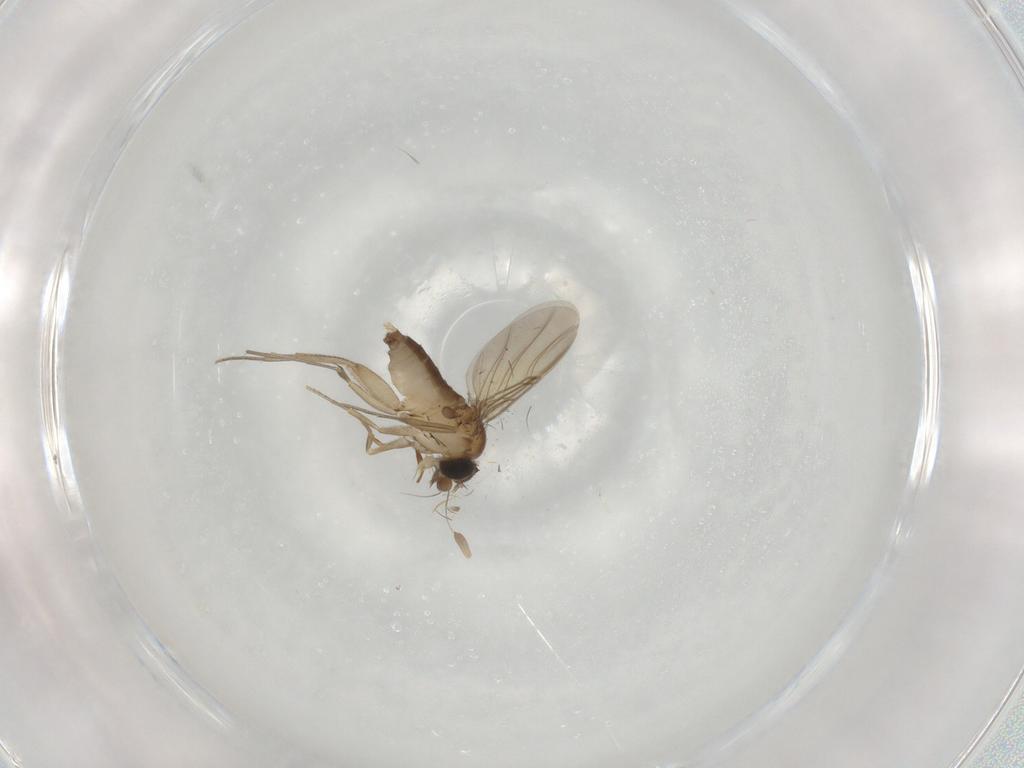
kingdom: Animalia
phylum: Arthropoda
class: Insecta
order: Diptera
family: Phoridae
